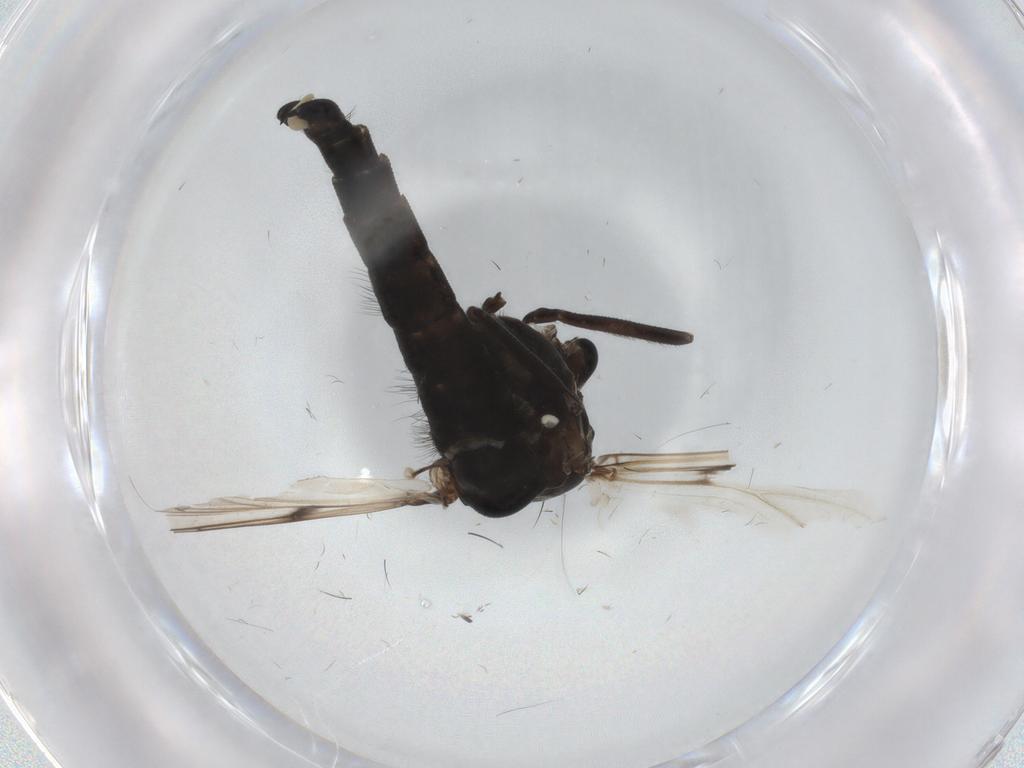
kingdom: Animalia
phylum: Arthropoda
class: Insecta
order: Diptera
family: Chironomidae
